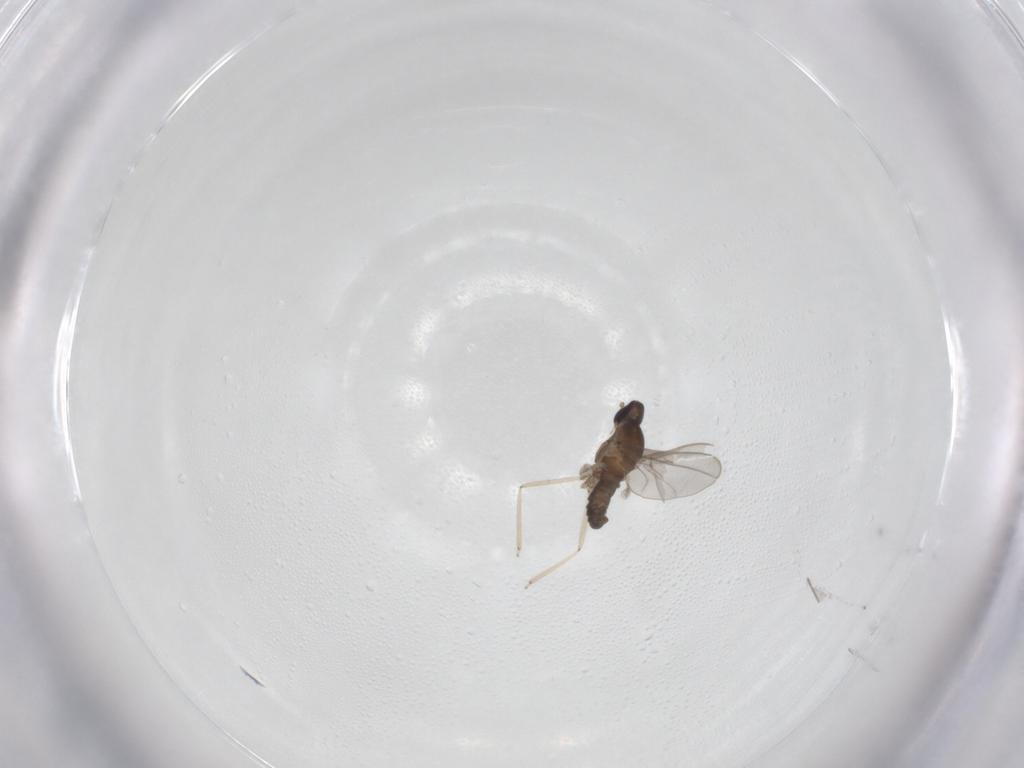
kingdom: Animalia
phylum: Arthropoda
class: Insecta
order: Diptera
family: Cecidomyiidae
